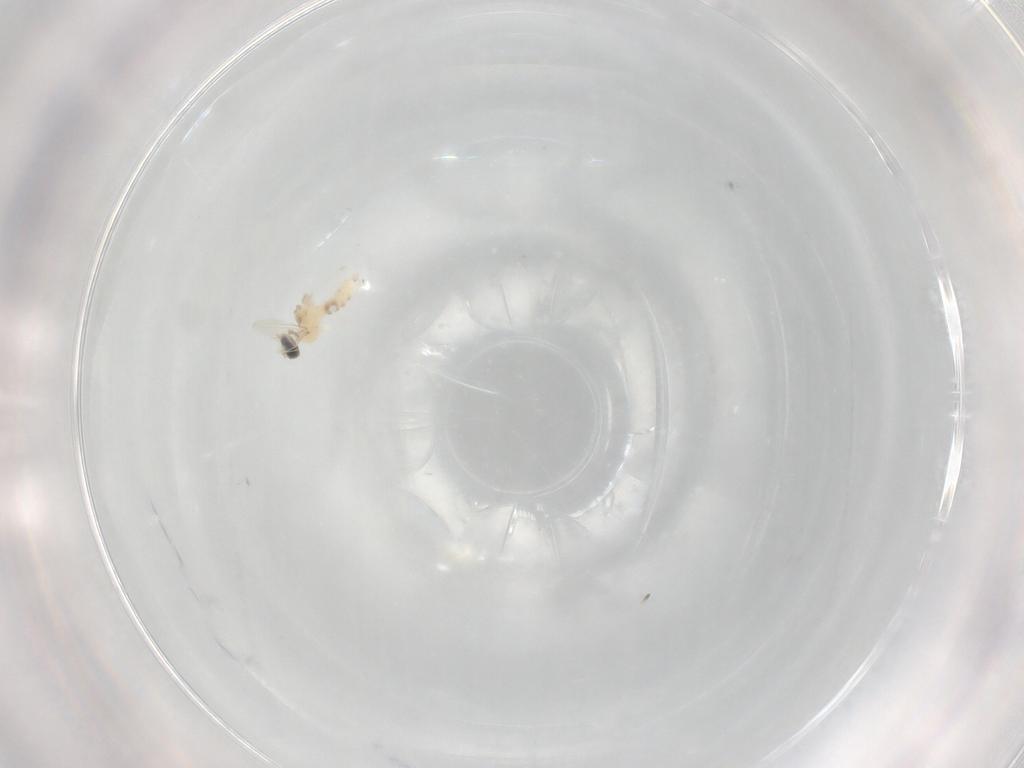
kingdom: Animalia
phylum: Arthropoda
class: Insecta
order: Diptera
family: Cecidomyiidae
